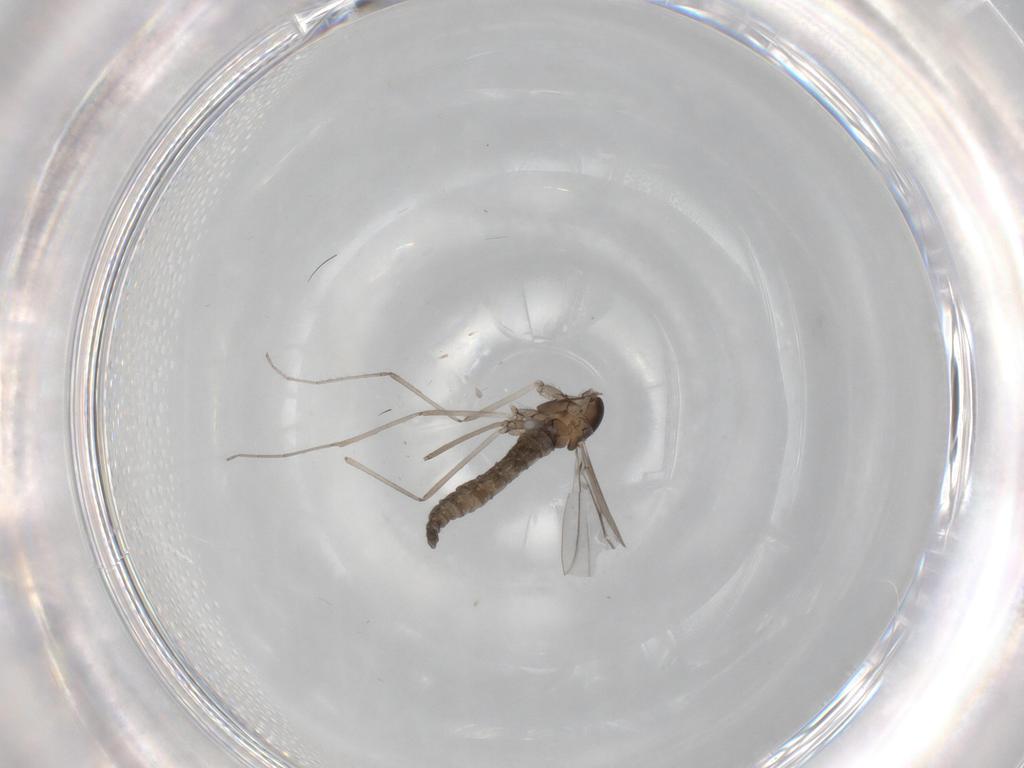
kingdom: Animalia
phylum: Arthropoda
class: Insecta
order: Diptera
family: Cecidomyiidae
